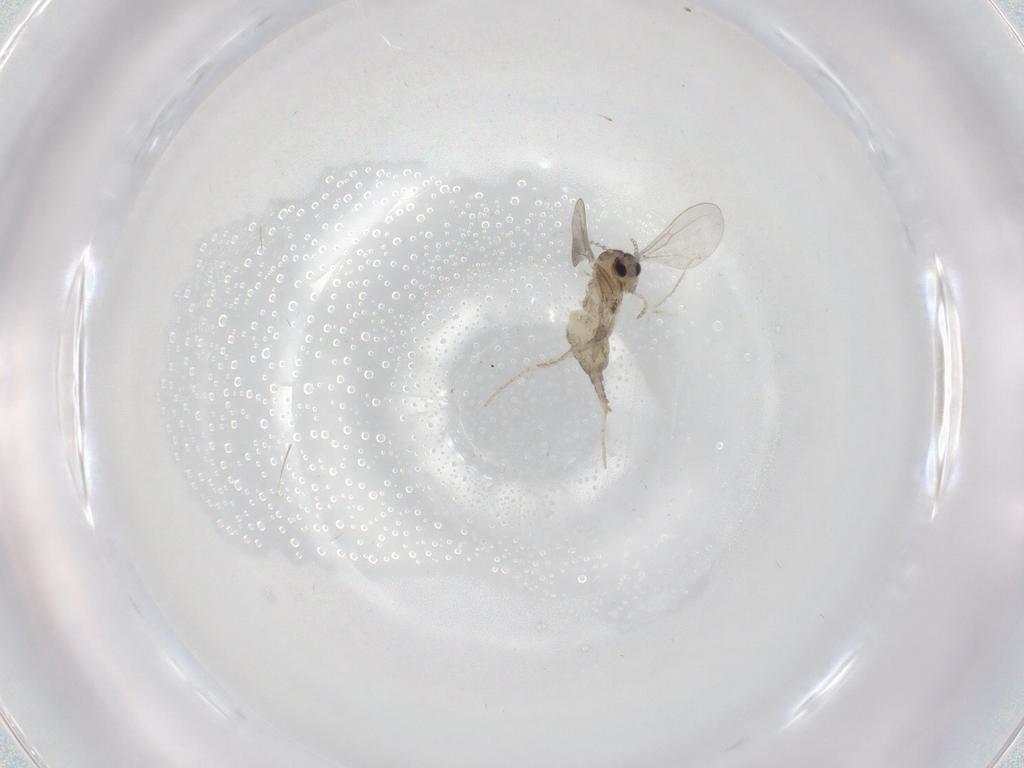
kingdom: Animalia
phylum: Arthropoda
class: Insecta
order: Diptera
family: Cecidomyiidae
